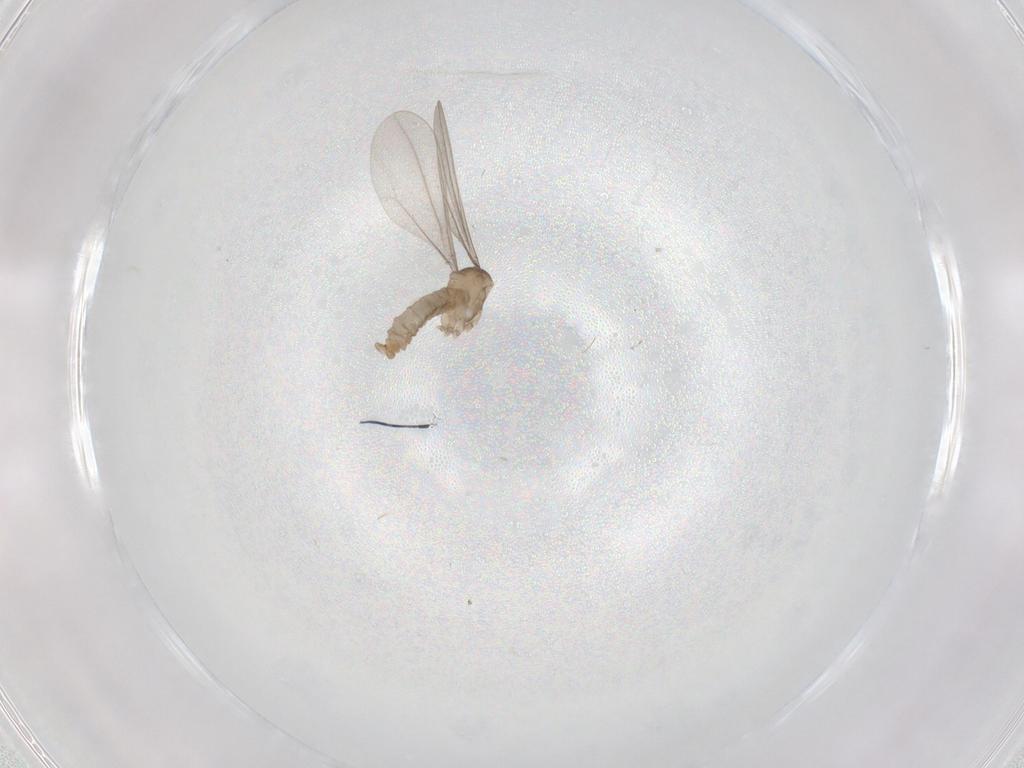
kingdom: Animalia
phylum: Arthropoda
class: Insecta
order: Diptera
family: Cecidomyiidae
